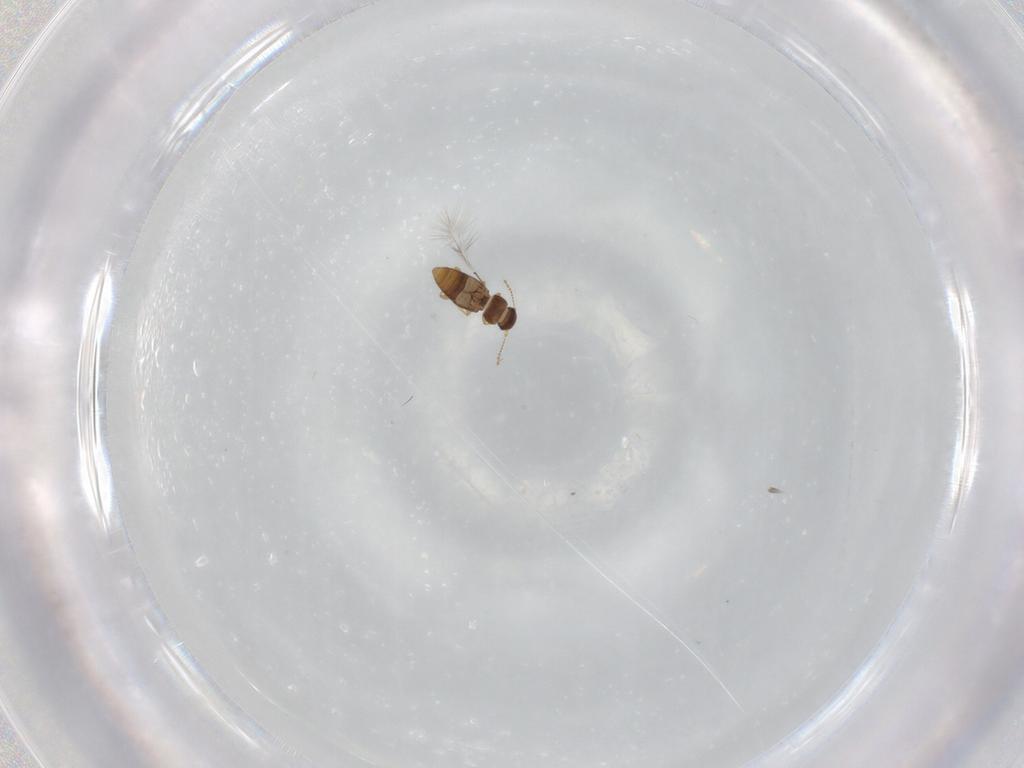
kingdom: Animalia
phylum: Arthropoda
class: Insecta
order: Coleoptera
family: Ptiliidae
